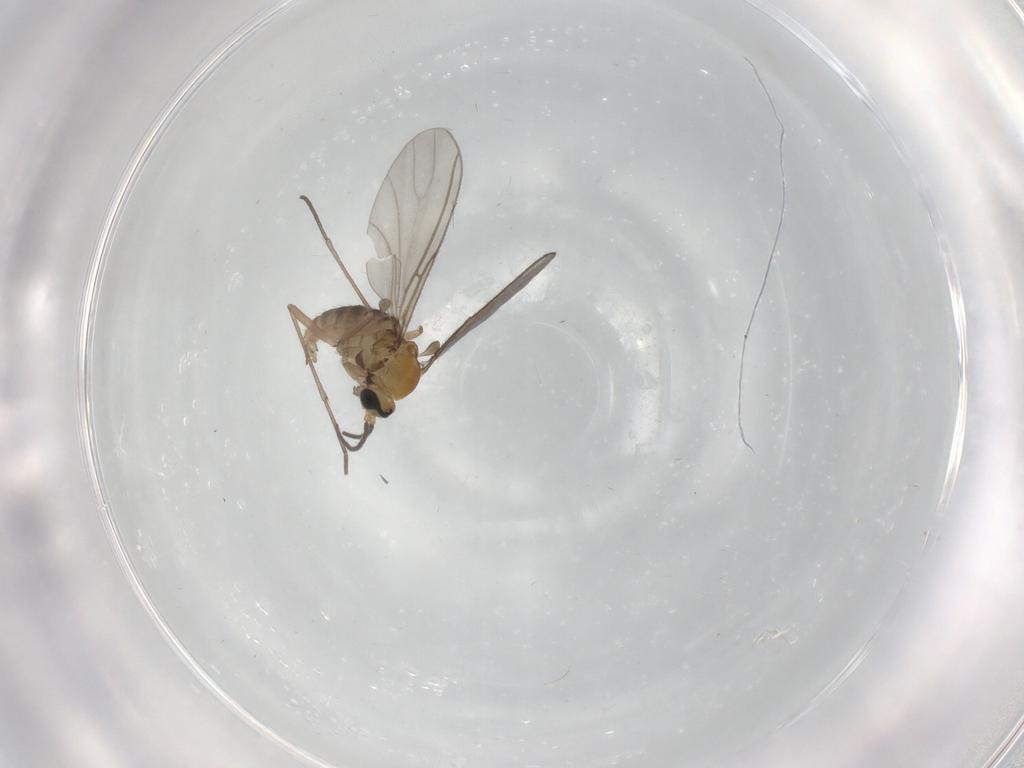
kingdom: Animalia
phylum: Arthropoda
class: Insecta
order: Diptera
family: Sciaridae
